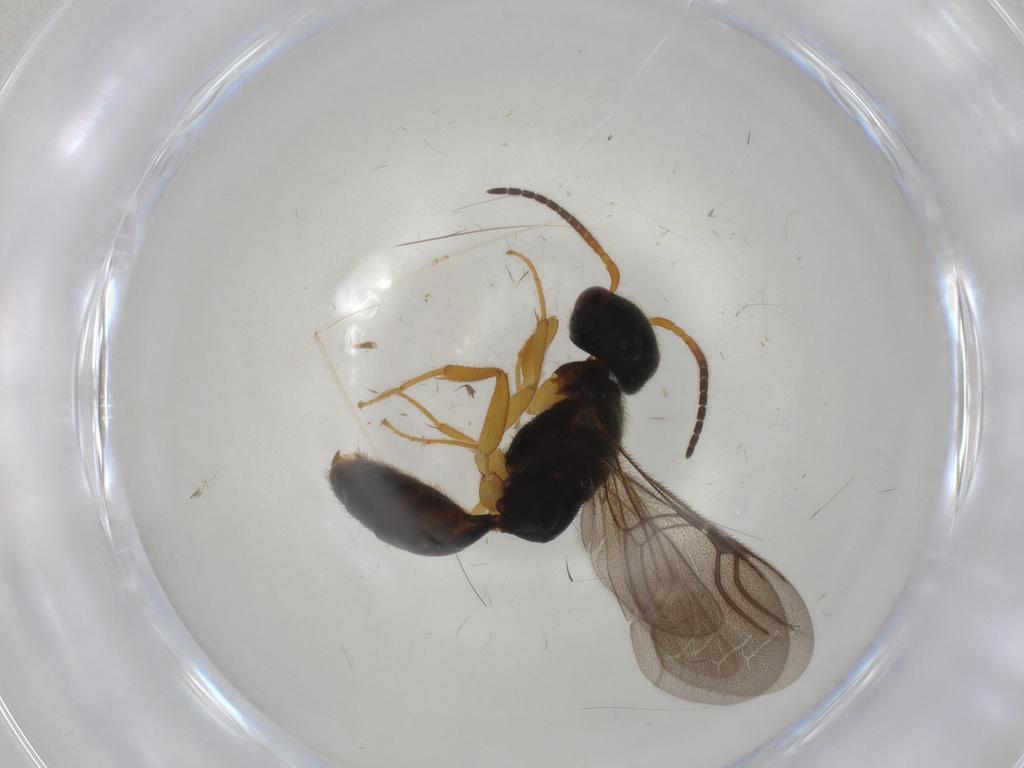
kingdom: Animalia
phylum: Arthropoda
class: Insecta
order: Hymenoptera
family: Bethylidae
